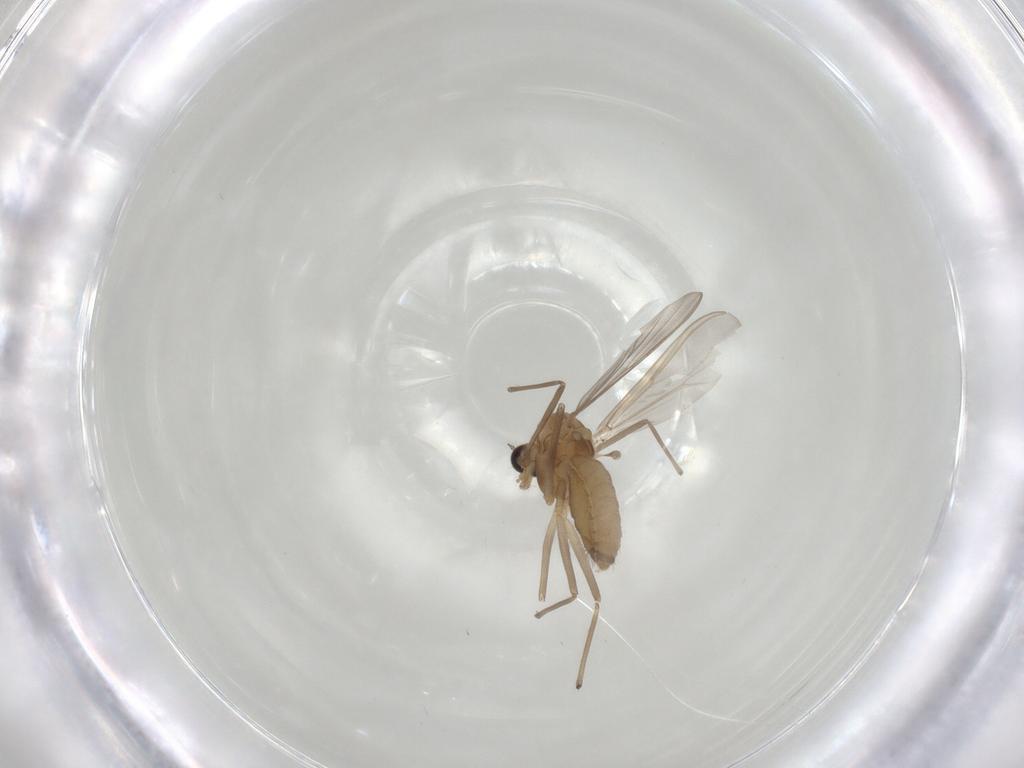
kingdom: Animalia
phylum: Arthropoda
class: Insecta
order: Diptera
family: Chironomidae
